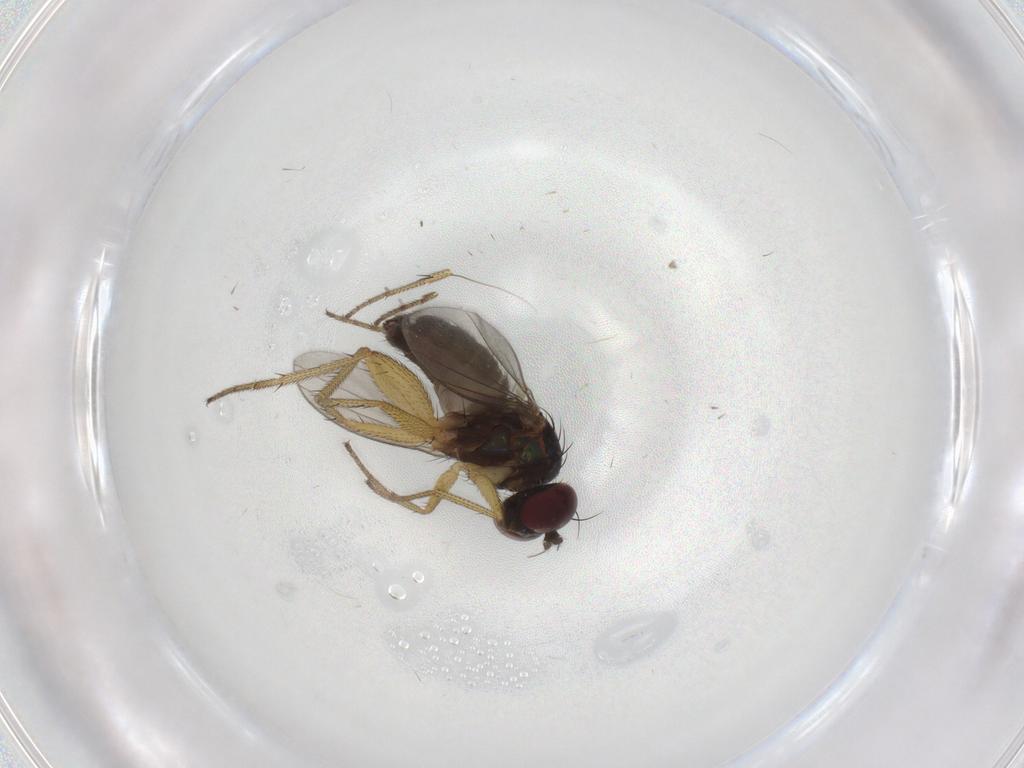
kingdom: Animalia
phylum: Arthropoda
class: Insecta
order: Diptera
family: Dolichopodidae
